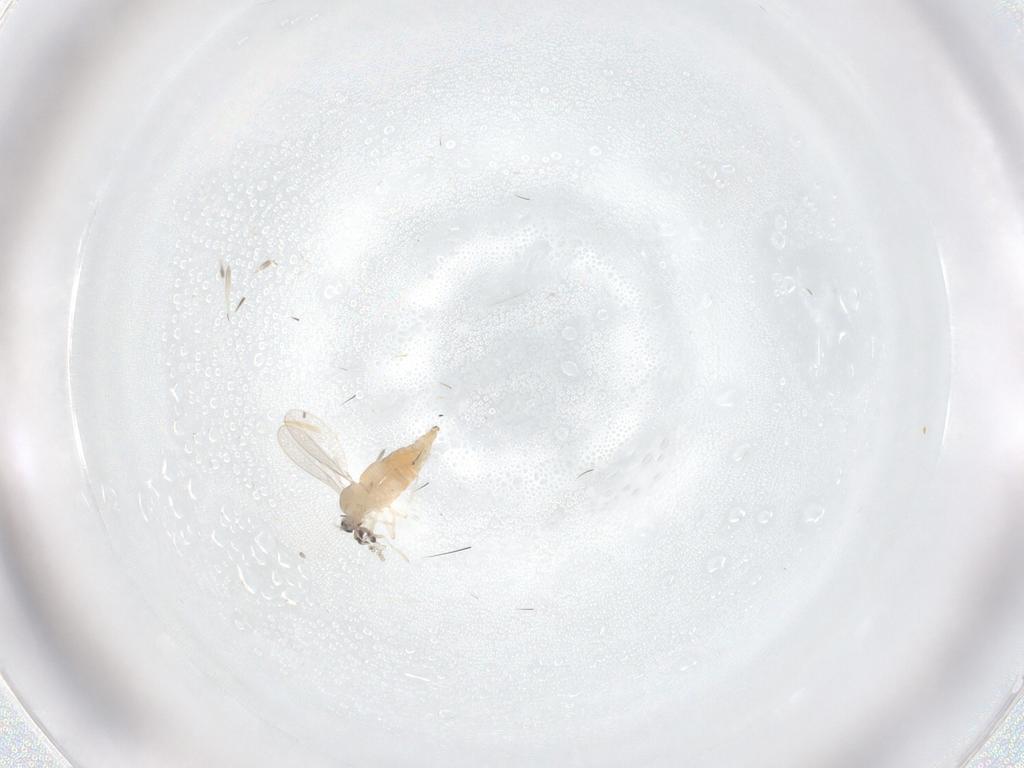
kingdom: Animalia
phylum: Arthropoda
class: Insecta
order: Diptera
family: Cecidomyiidae
